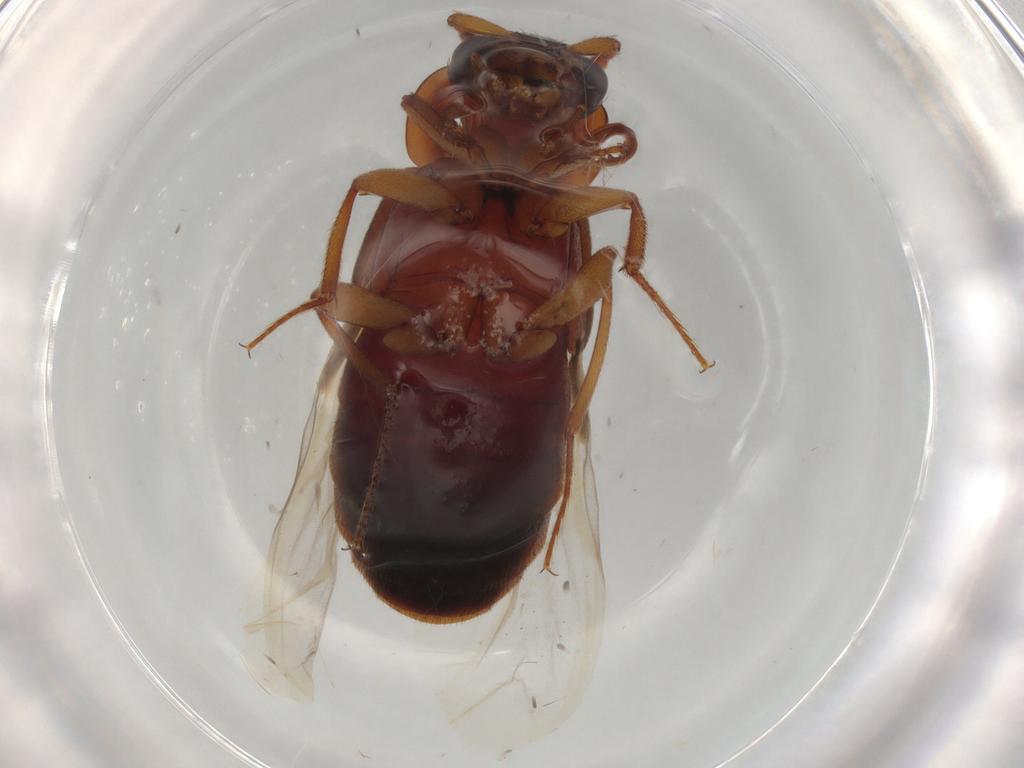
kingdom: Animalia
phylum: Arthropoda
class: Insecta
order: Coleoptera
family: Staphylinidae
